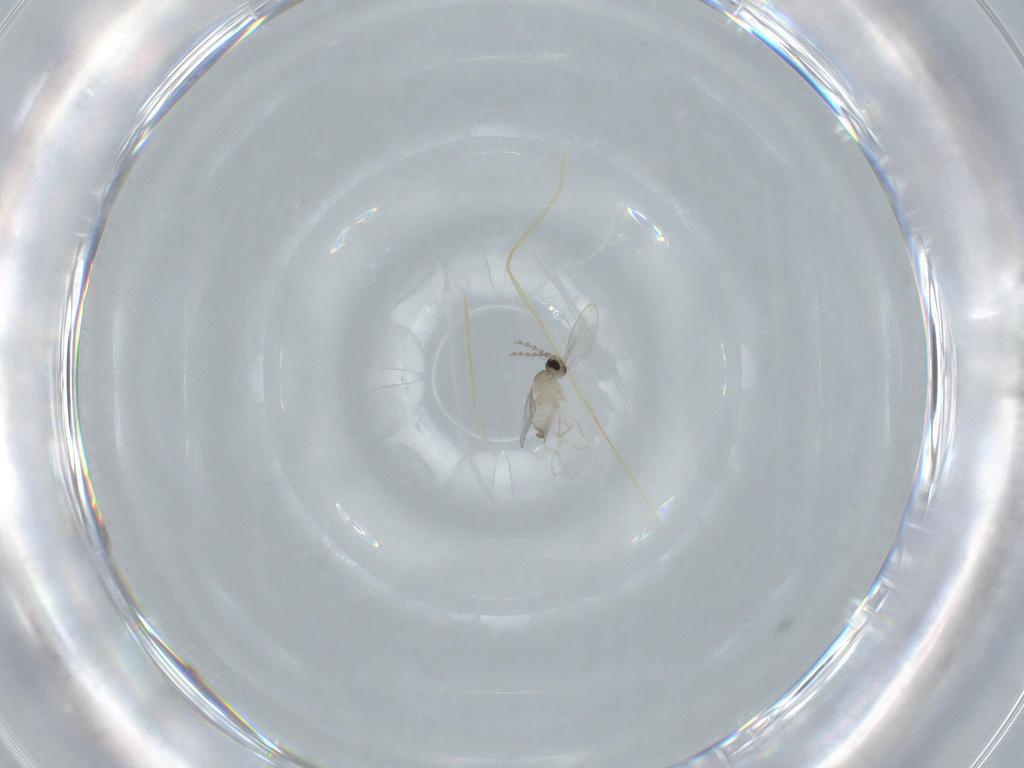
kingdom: Animalia
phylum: Arthropoda
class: Insecta
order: Diptera
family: Cecidomyiidae
